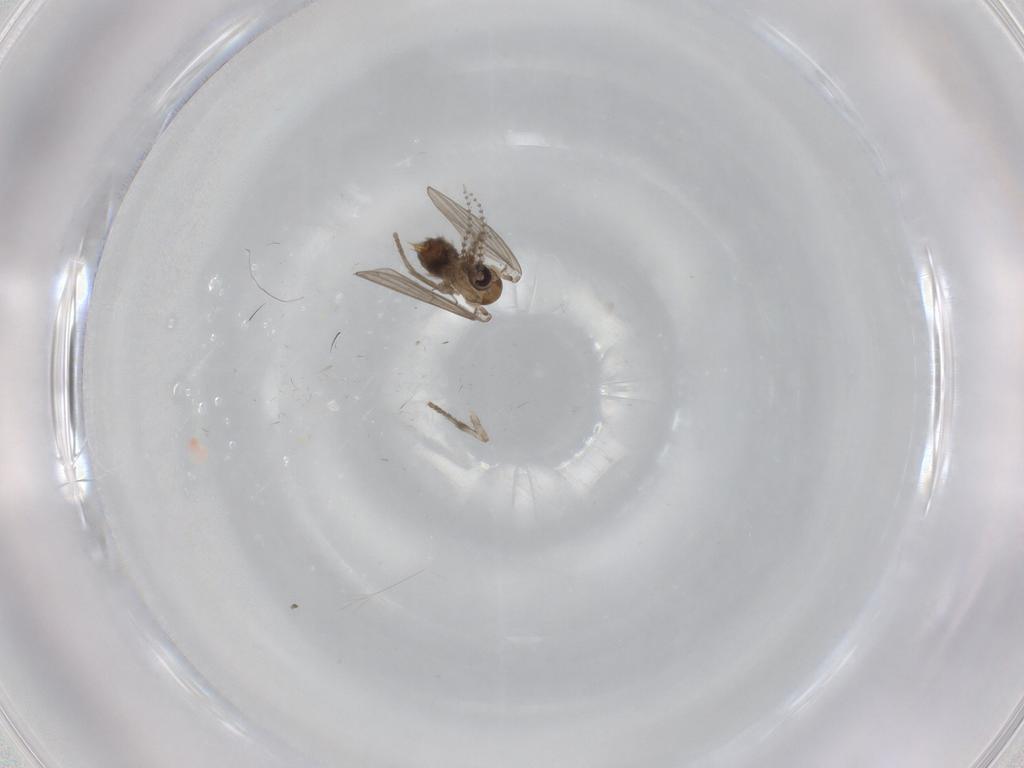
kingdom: Animalia
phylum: Arthropoda
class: Insecta
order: Diptera
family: Psychodidae
